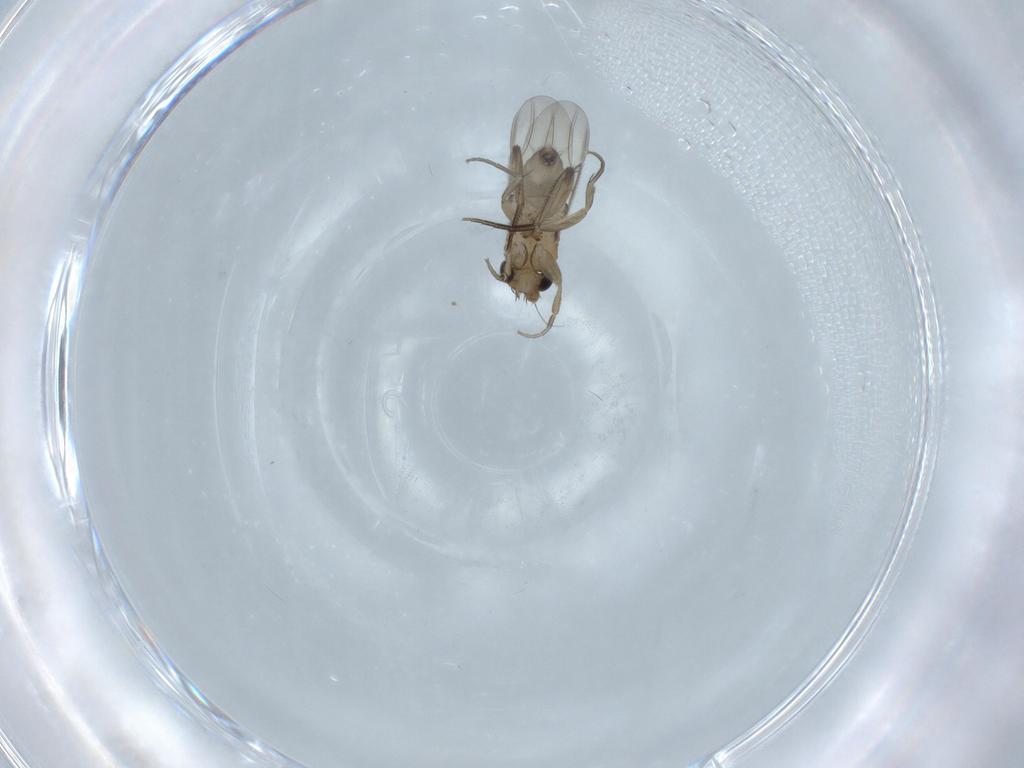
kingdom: Animalia
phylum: Arthropoda
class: Insecta
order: Diptera
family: Phoridae
